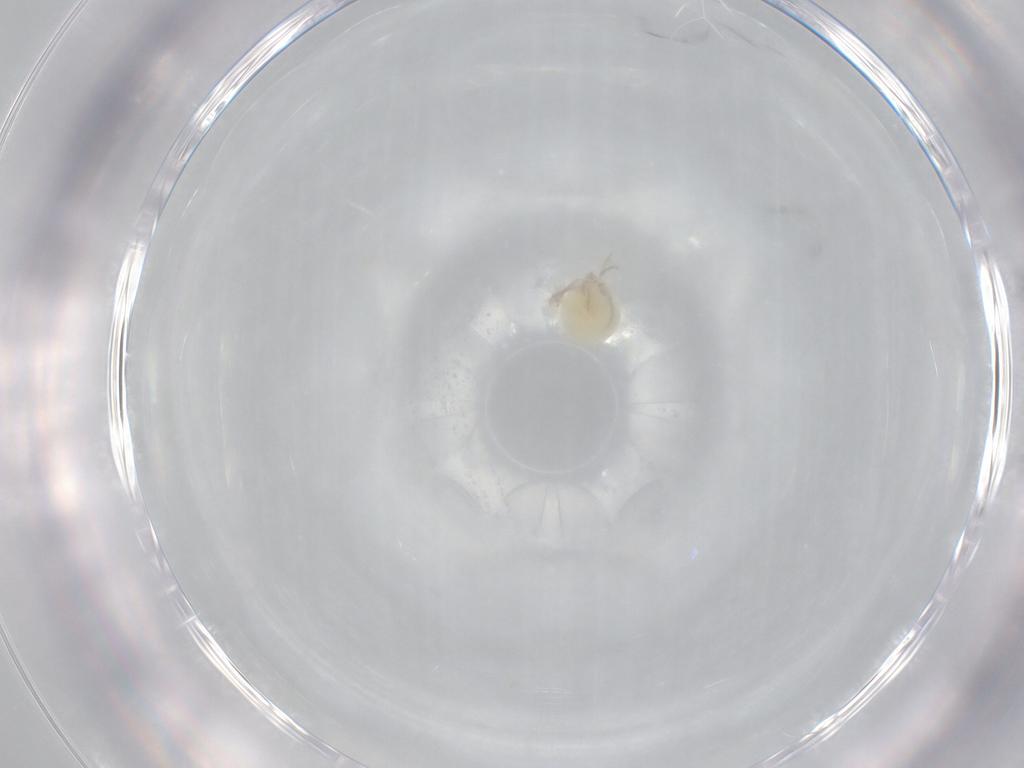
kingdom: Animalia
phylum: Arthropoda
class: Arachnida
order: Trombidiformes
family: Lebertiidae
